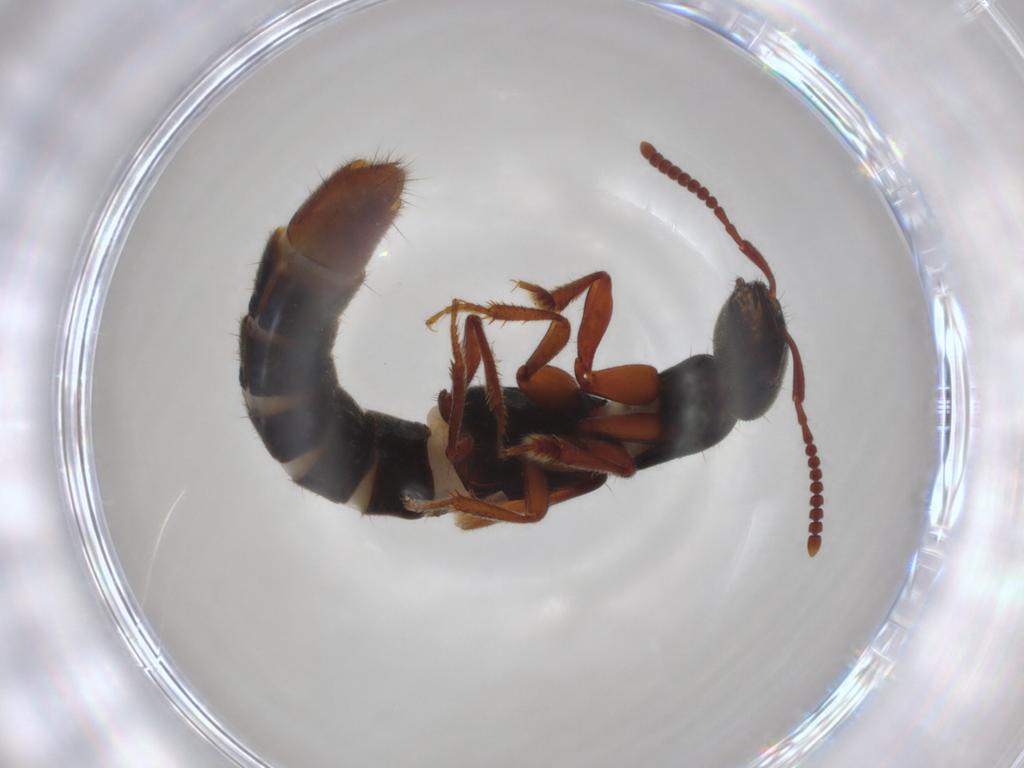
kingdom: Animalia
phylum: Arthropoda
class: Insecta
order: Coleoptera
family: Staphylinidae
